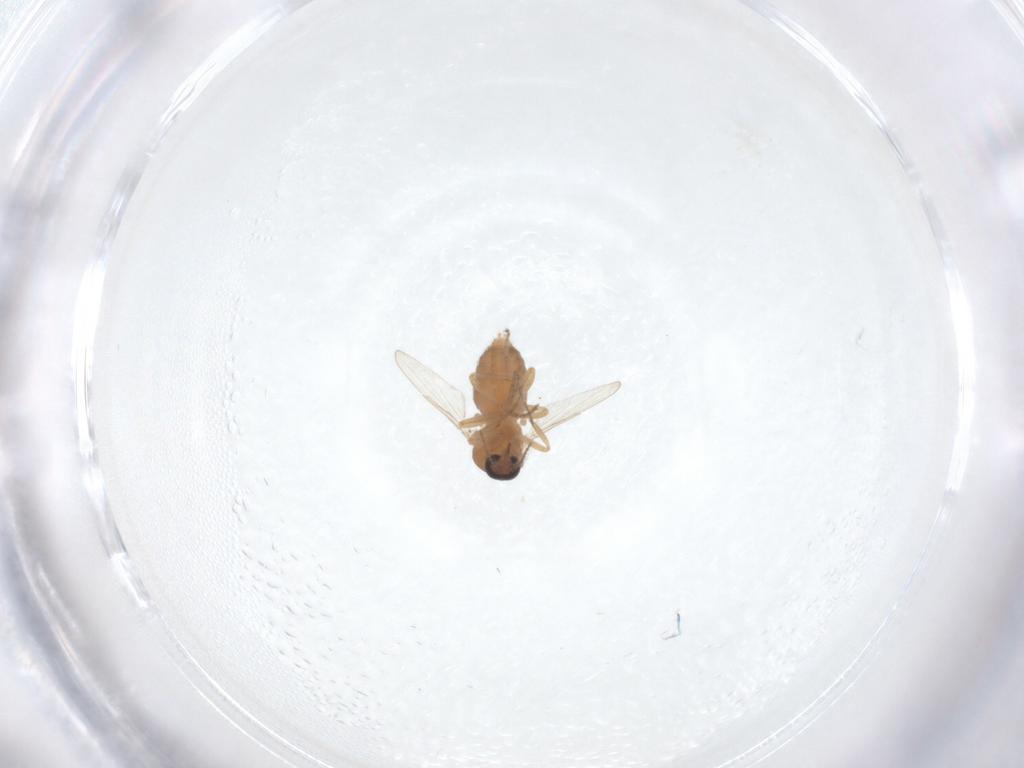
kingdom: Animalia
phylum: Arthropoda
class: Insecta
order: Diptera
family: Ceratopogonidae
